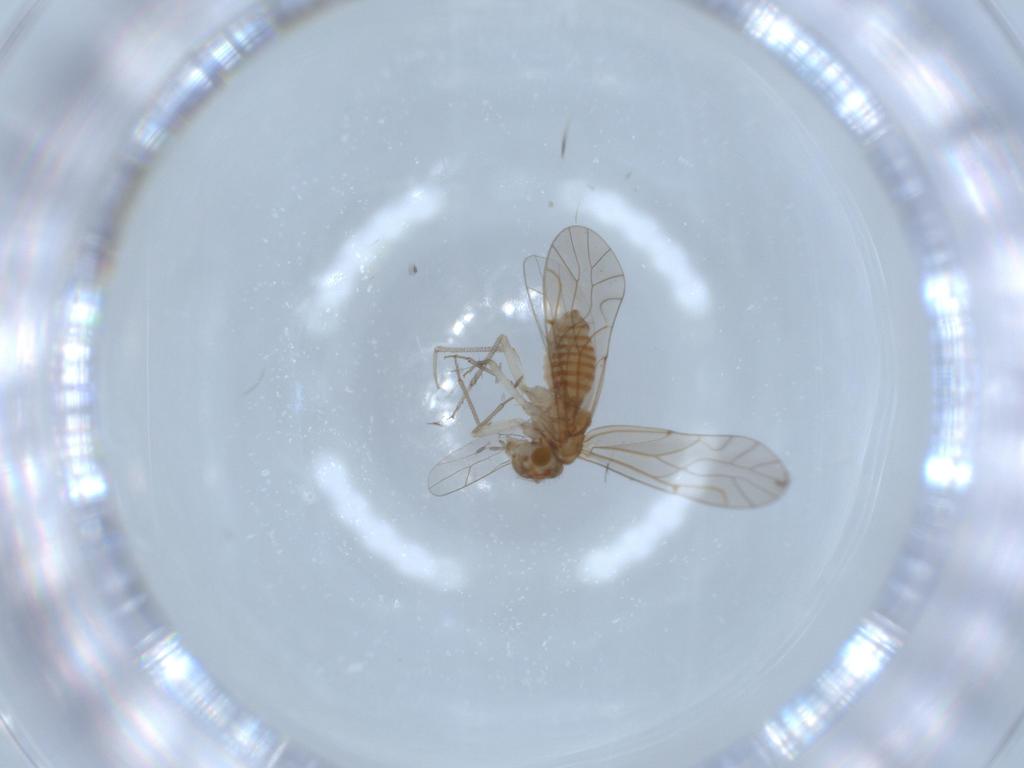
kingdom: Animalia
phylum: Arthropoda
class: Insecta
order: Psocodea
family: Lachesillidae
